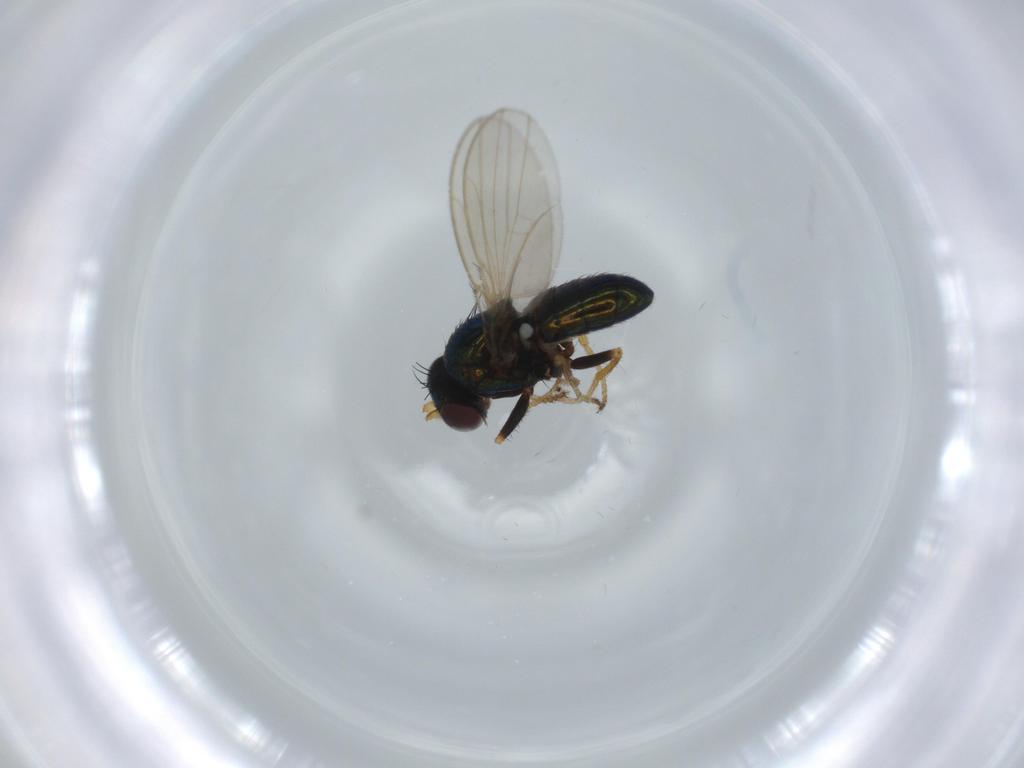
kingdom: Animalia
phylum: Arthropoda
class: Insecta
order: Diptera
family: Ephydridae
